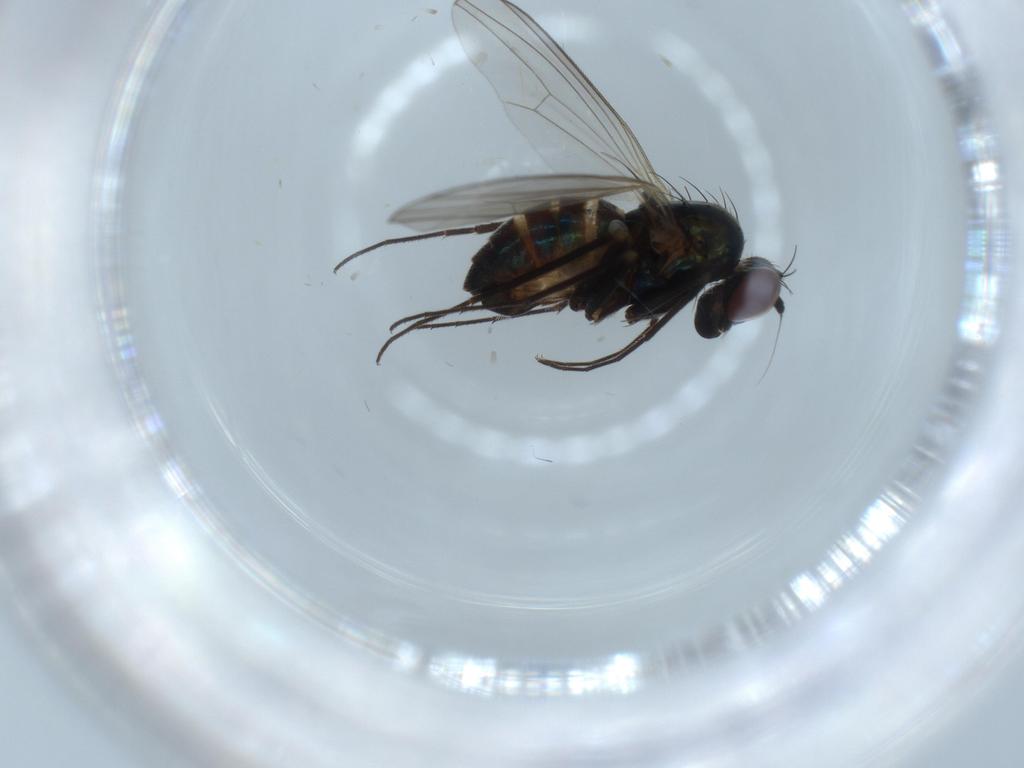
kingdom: Animalia
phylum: Arthropoda
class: Insecta
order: Diptera
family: Dolichopodidae
